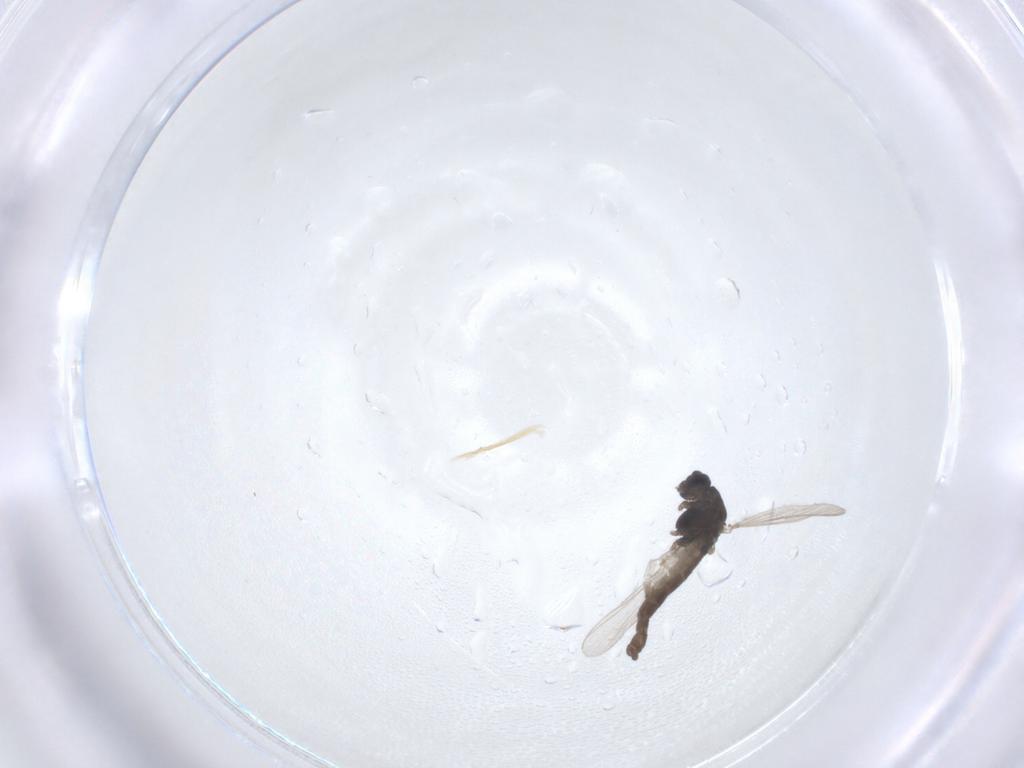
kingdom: Animalia
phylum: Arthropoda
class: Insecta
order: Diptera
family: Chironomidae
